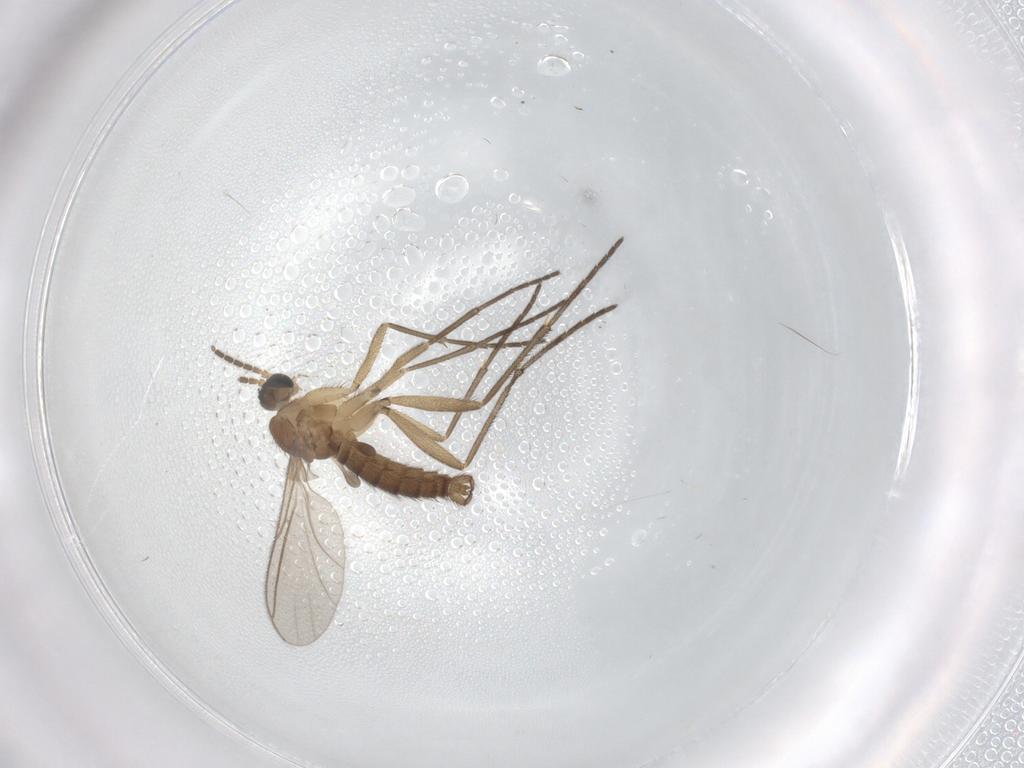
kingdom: Animalia
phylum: Arthropoda
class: Insecta
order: Diptera
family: Sciaridae
